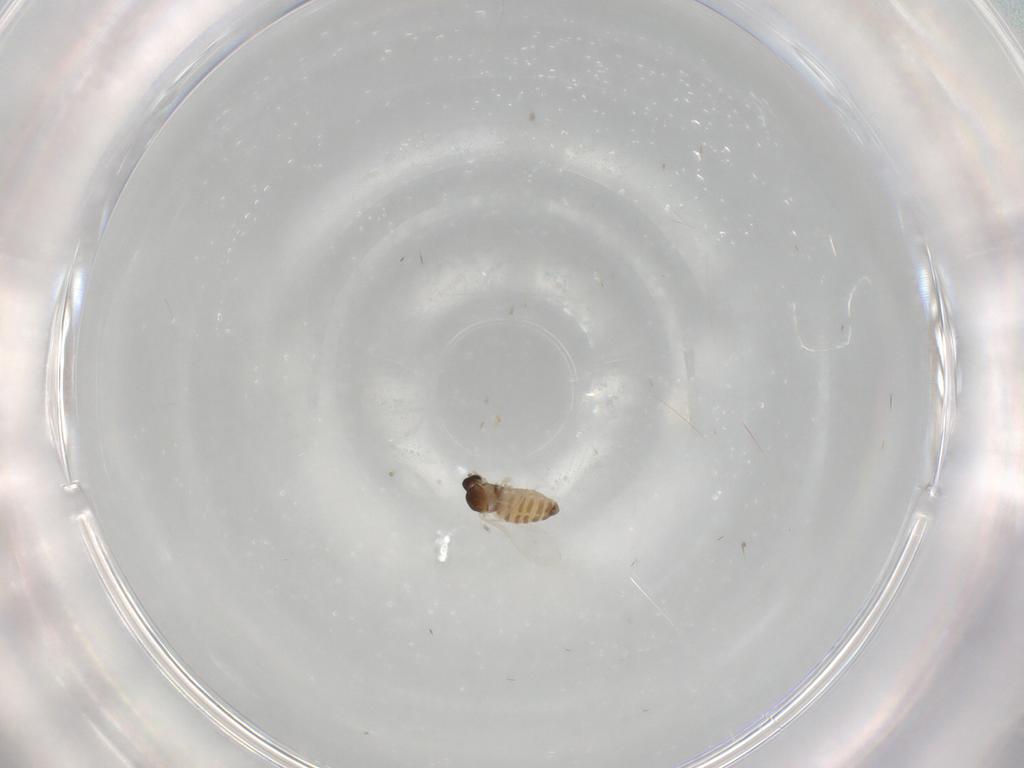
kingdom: Animalia
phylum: Arthropoda
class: Insecta
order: Diptera
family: Cecidomyiidae
